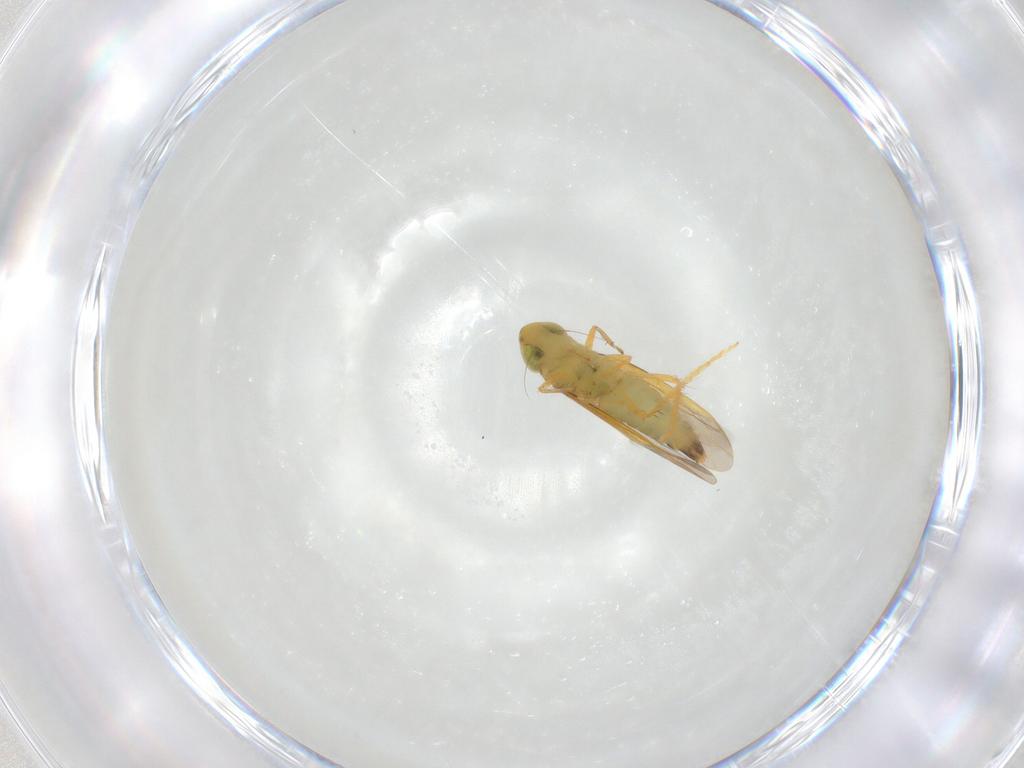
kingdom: Animalia
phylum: Arthropoda
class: Insecta
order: Hemiptera
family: Cicadellidae
